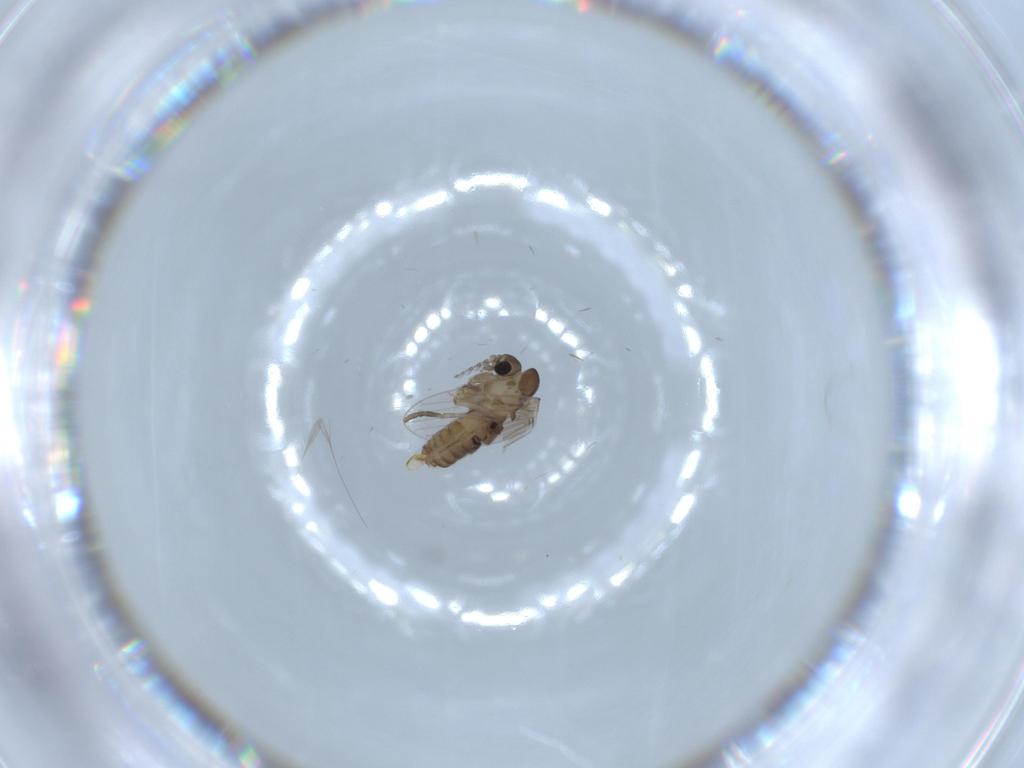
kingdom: Animalia
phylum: Arthropoda
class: Insecta
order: Diptera
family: Psychodidae
